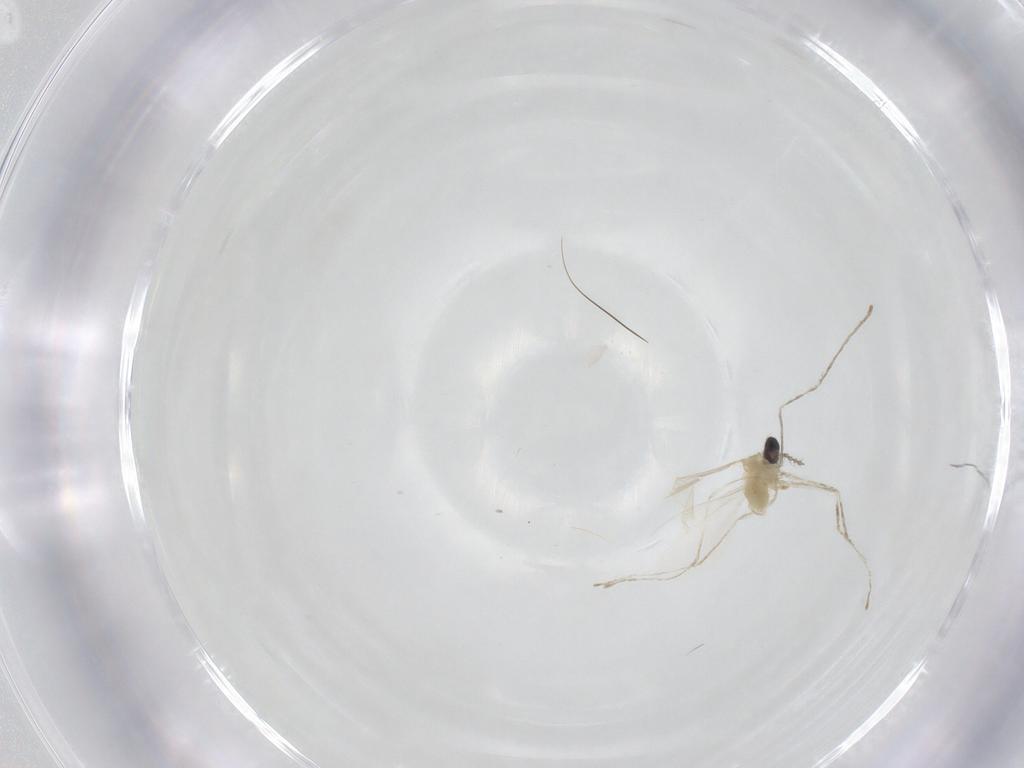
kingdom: Animalia
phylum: Arthropoda
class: Insecta
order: Diptera
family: Cecidomyiidae
